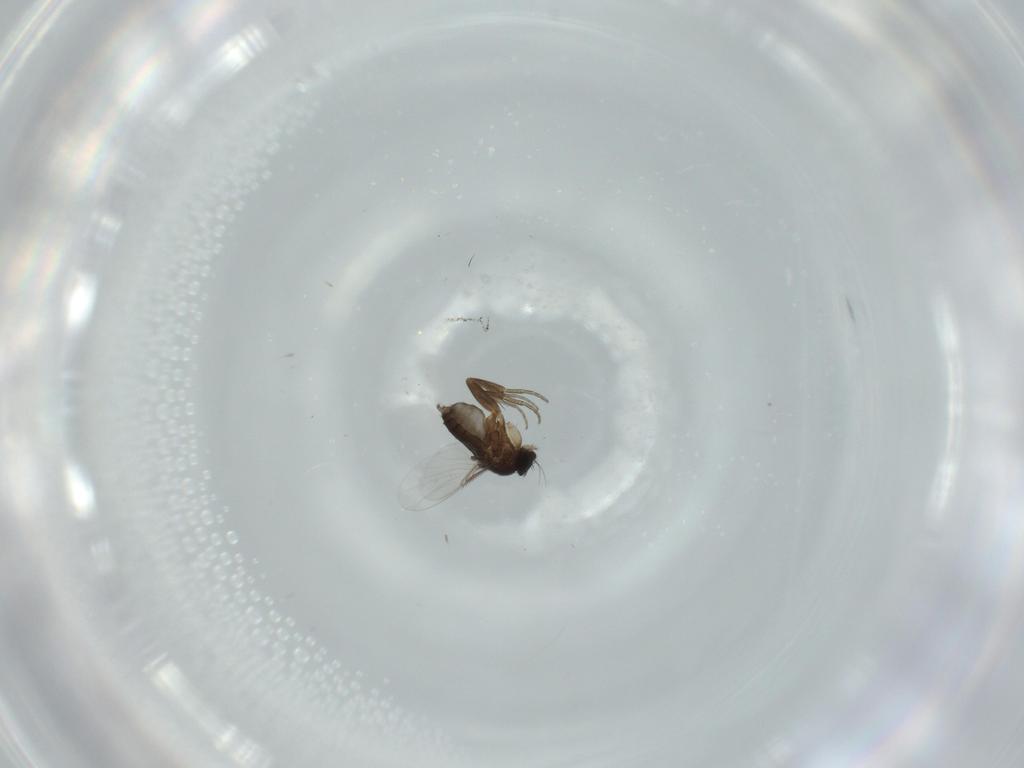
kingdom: Animalia
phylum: Arthropoda
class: Insecta
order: Diptera
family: Phoridae
